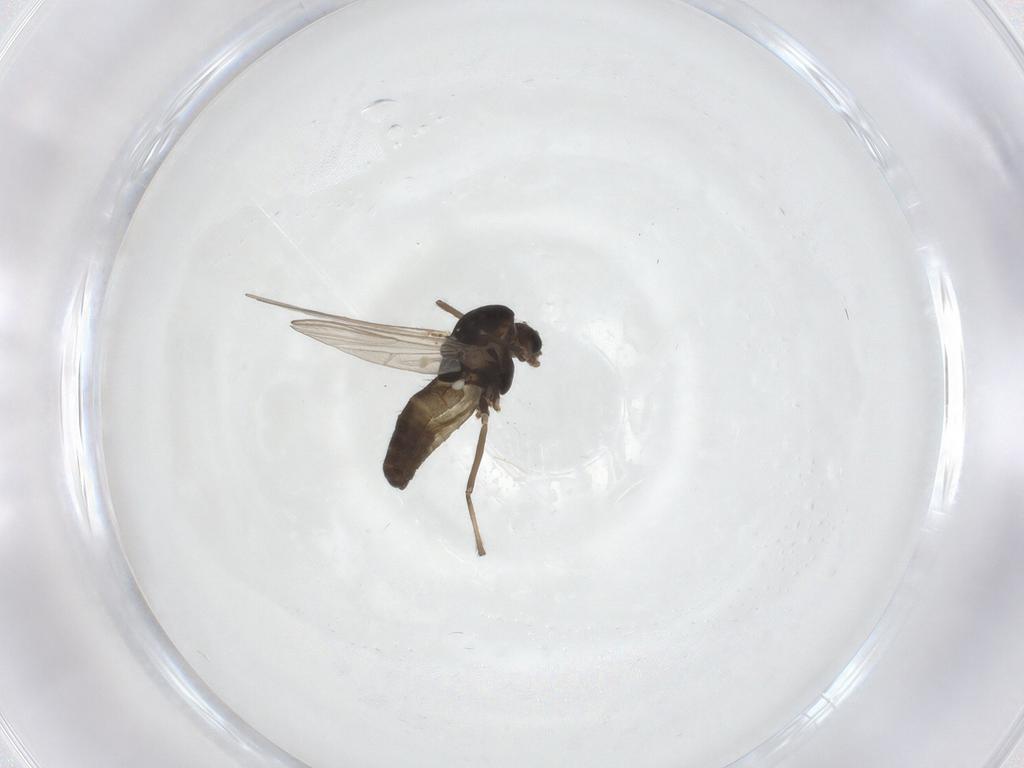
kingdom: Animalia
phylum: Arthropoda
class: Insecta
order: Diptera
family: Chironomidae
